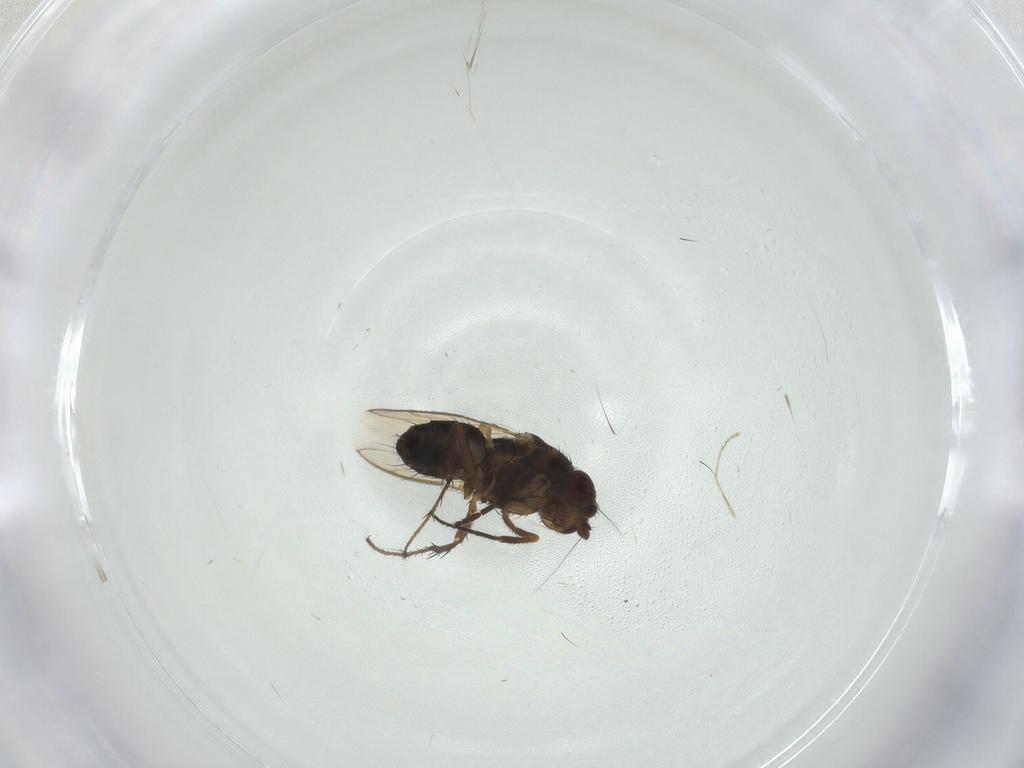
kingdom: Animalia
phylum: Arthropoda
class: Insecta
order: Diptera
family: Sphaeroceridae
